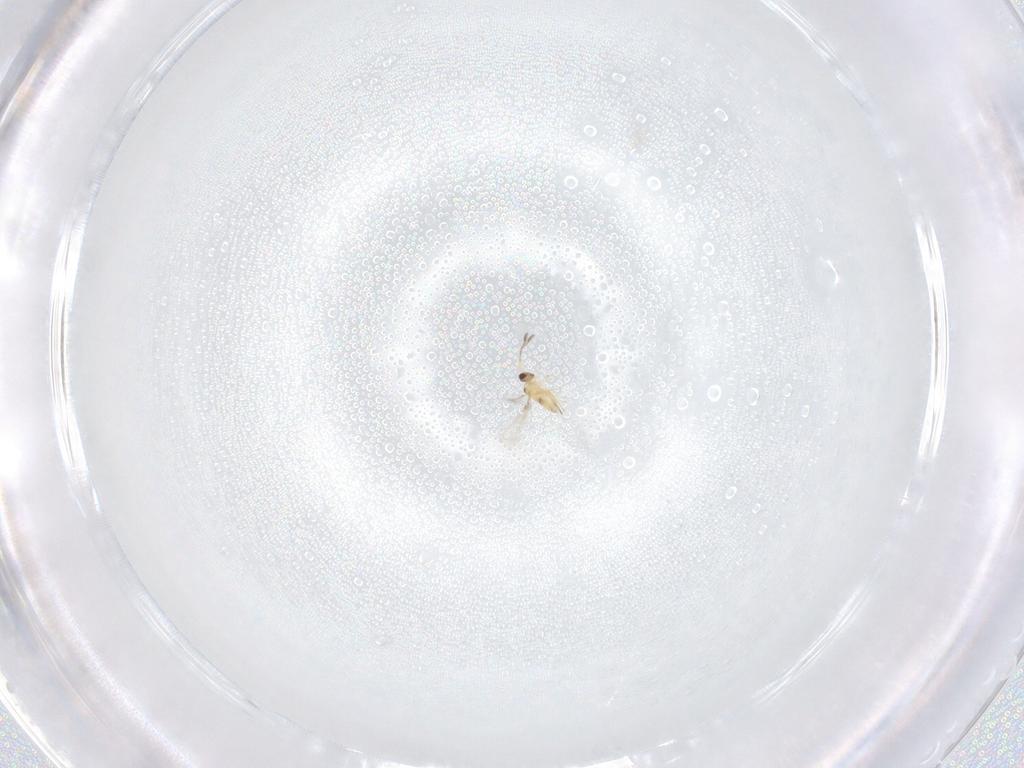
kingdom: Animalia
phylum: Arthropoda
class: Insecta
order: Hymenoptera
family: Mymaridae
